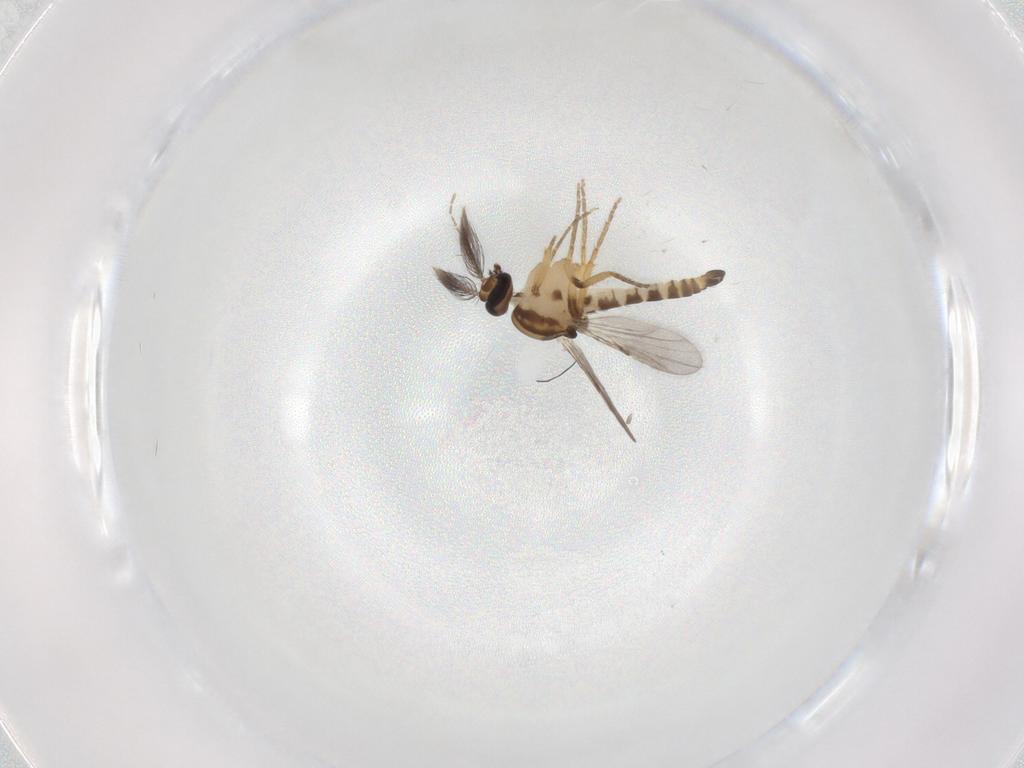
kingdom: Animalia
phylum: Arthropoda
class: Insecta
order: Diptera
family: Ceratopogonidae
